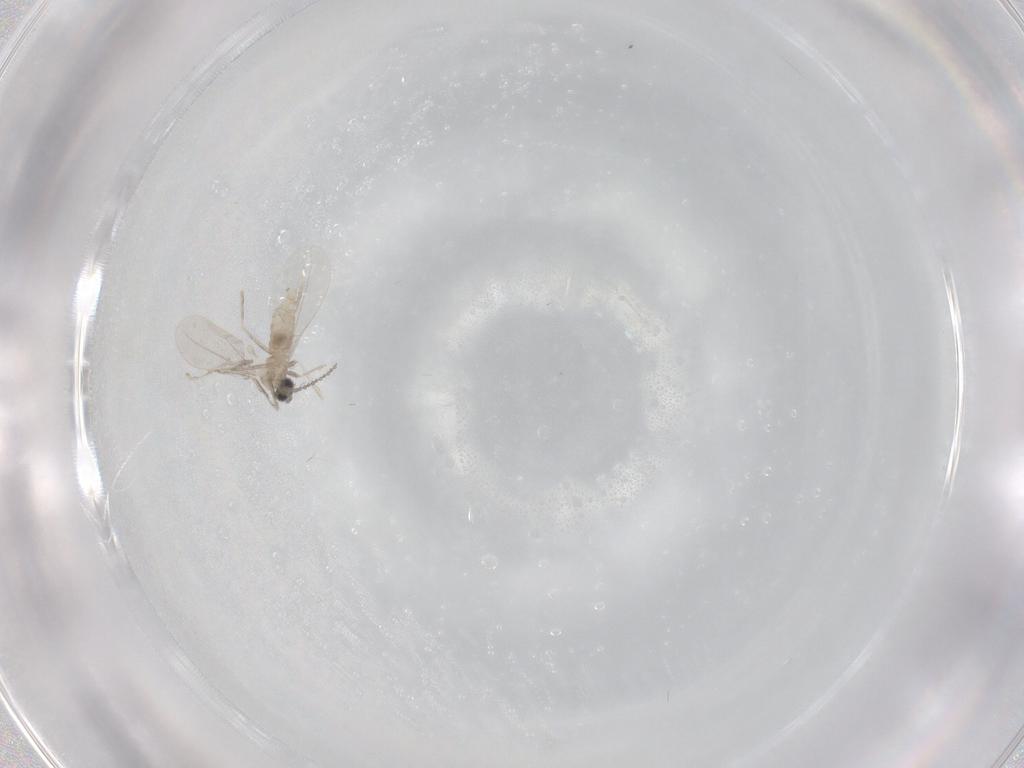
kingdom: Animalia
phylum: Arthropoda
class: Insecta
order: Diptera
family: Cecidomyiidae
